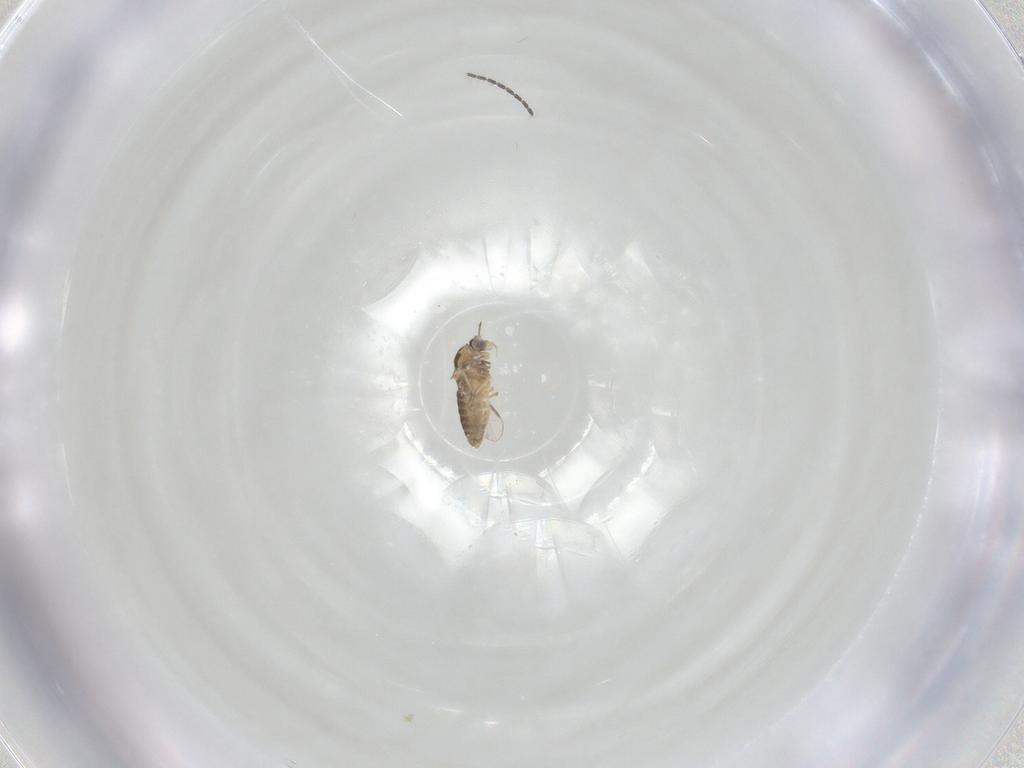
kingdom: Animalia
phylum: Arthropoda
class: Insecta
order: Diptera
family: Chironomidae
